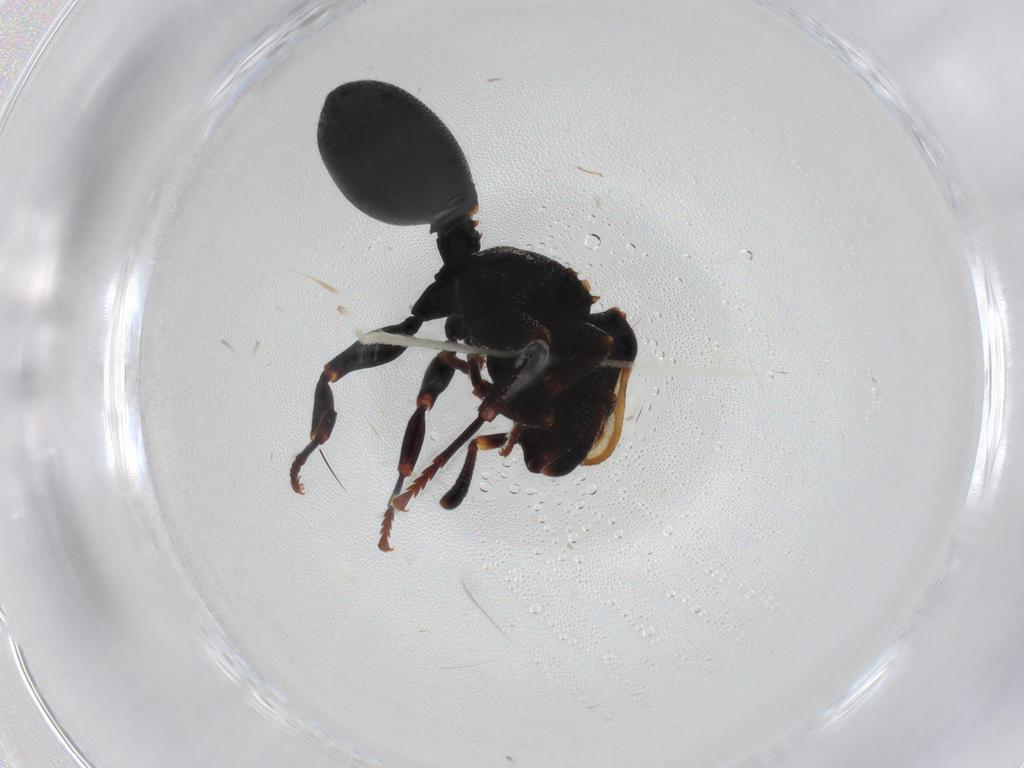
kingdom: Animalia
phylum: Arthropoda
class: Insecta
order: Hymenoptera
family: Formicidae
